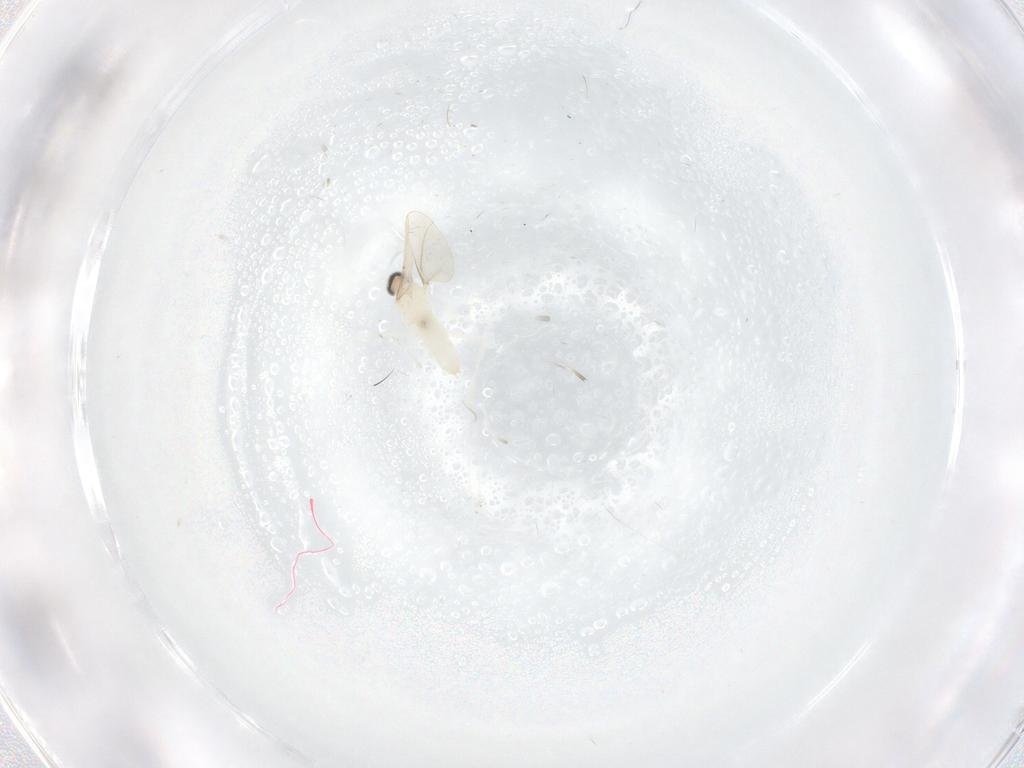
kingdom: Animalia
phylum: Arthropoda
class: Insecta
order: Diptera
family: Cecidomyiidae
